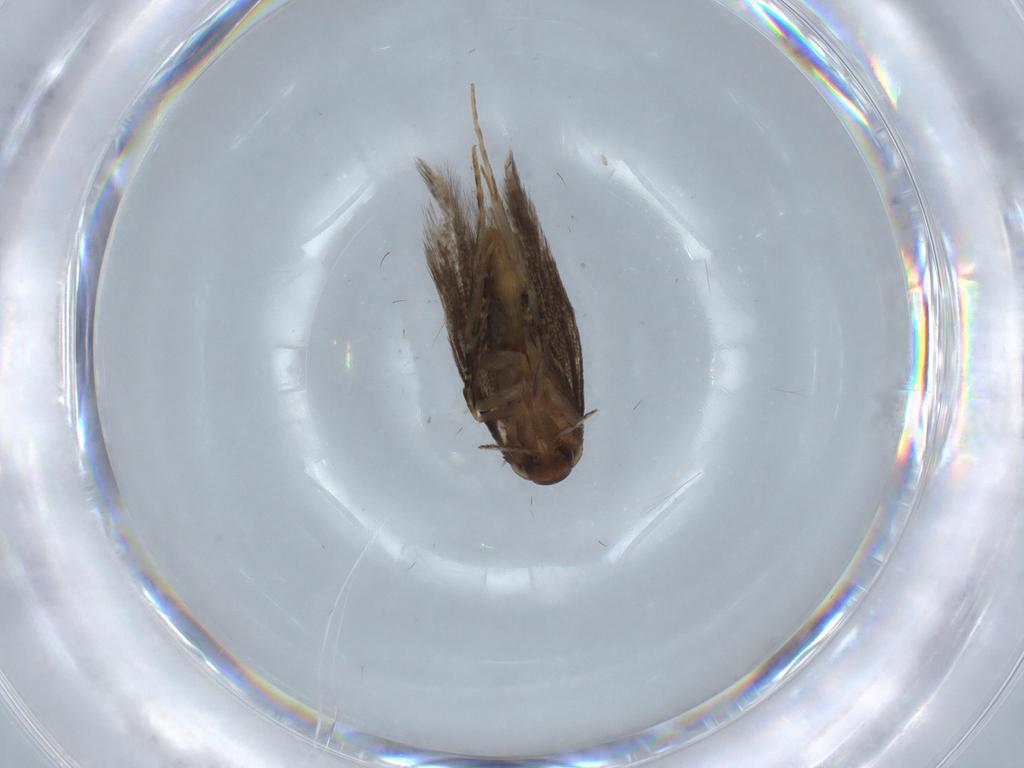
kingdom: Animalia
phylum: Arthropoda
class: Insecta
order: Lepidoptera
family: Elachistidae
